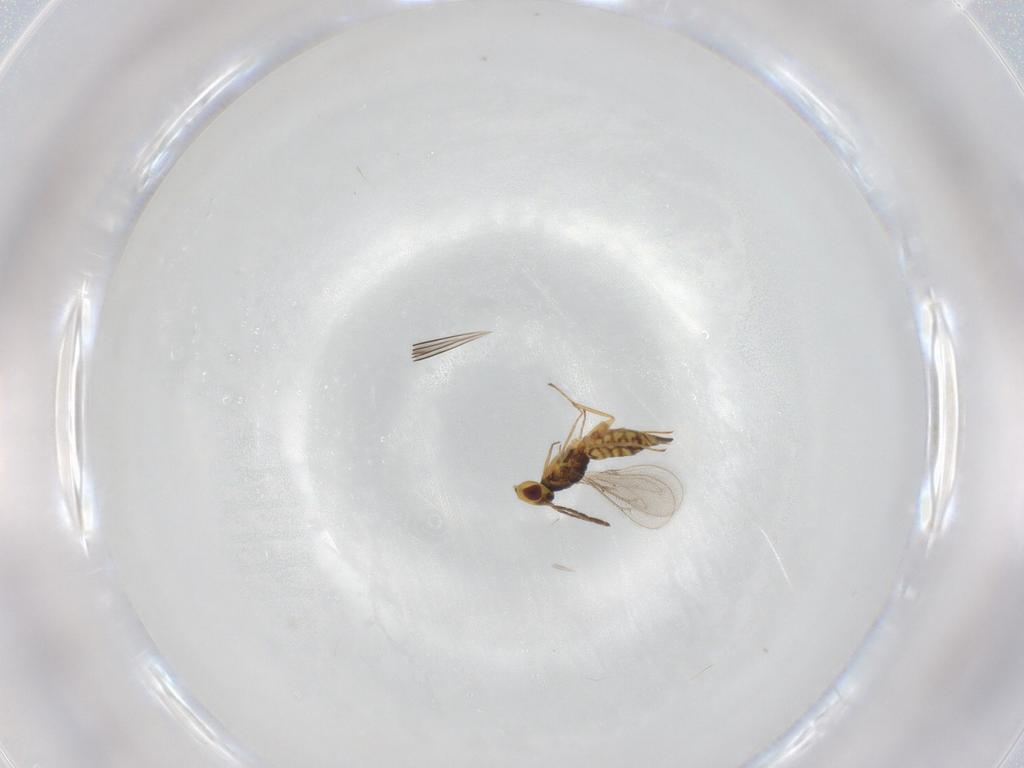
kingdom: Animalia
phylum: Arthropoda
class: Insecta
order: Hymenoptera
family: Eulophidae
